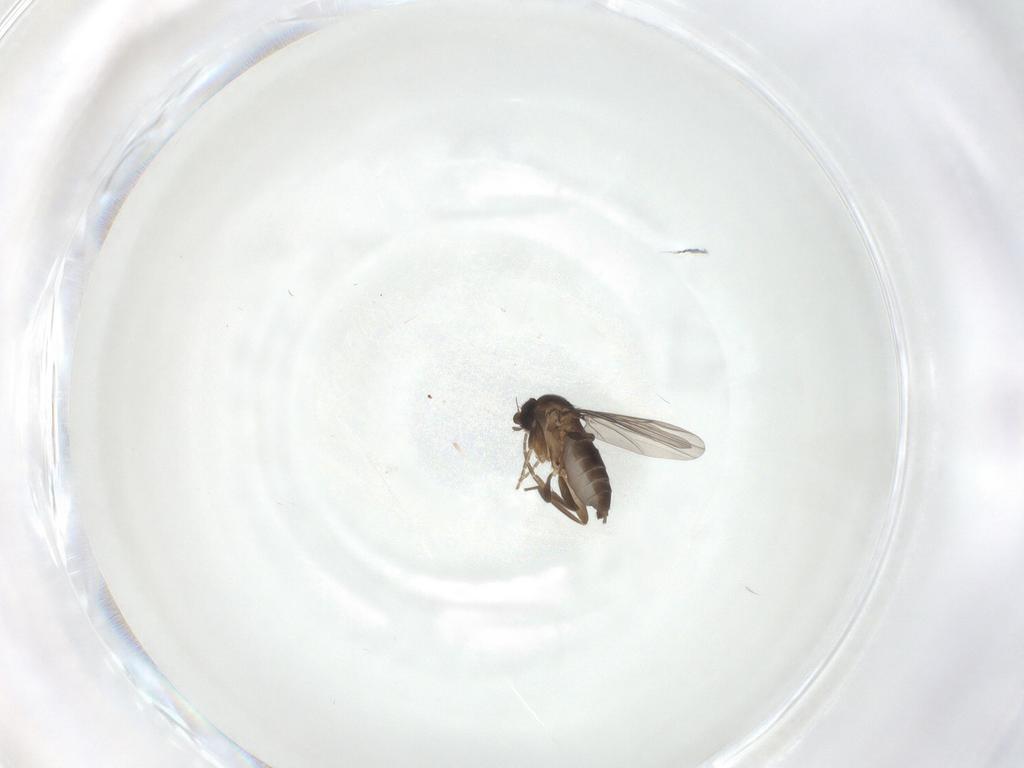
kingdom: Animalia
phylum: Arthropoda
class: Insecta
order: Diptera
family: Phoridae
